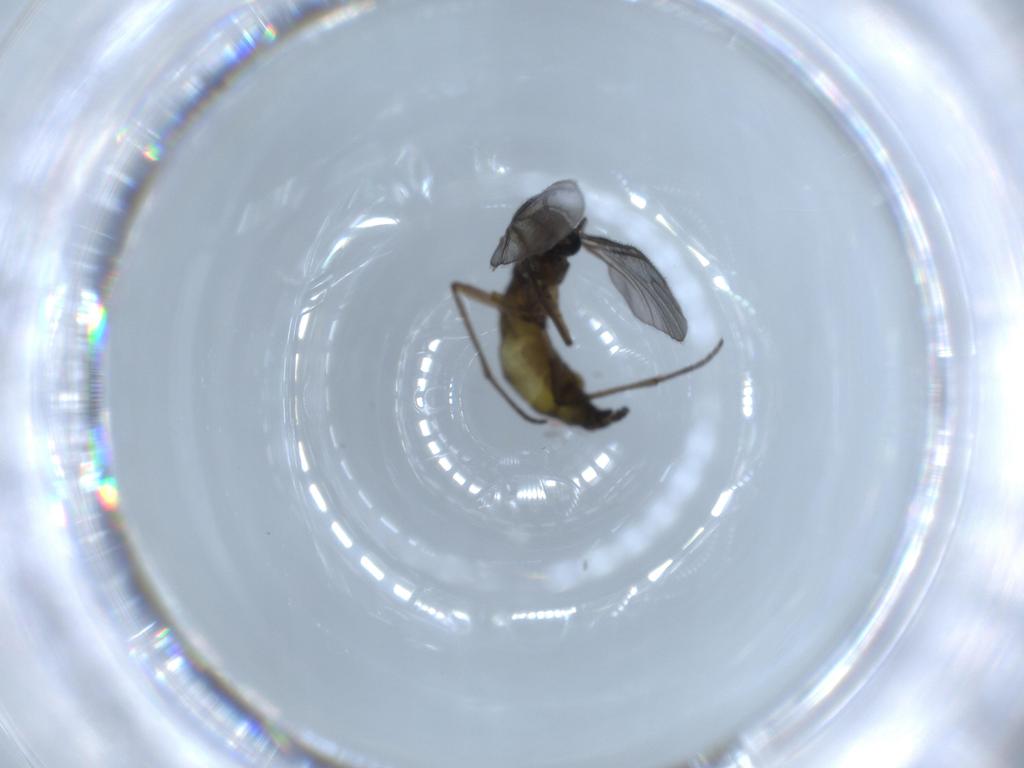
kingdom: Animalia
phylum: Arthropoda
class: Insecta
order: Diptera
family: Sciaridae
